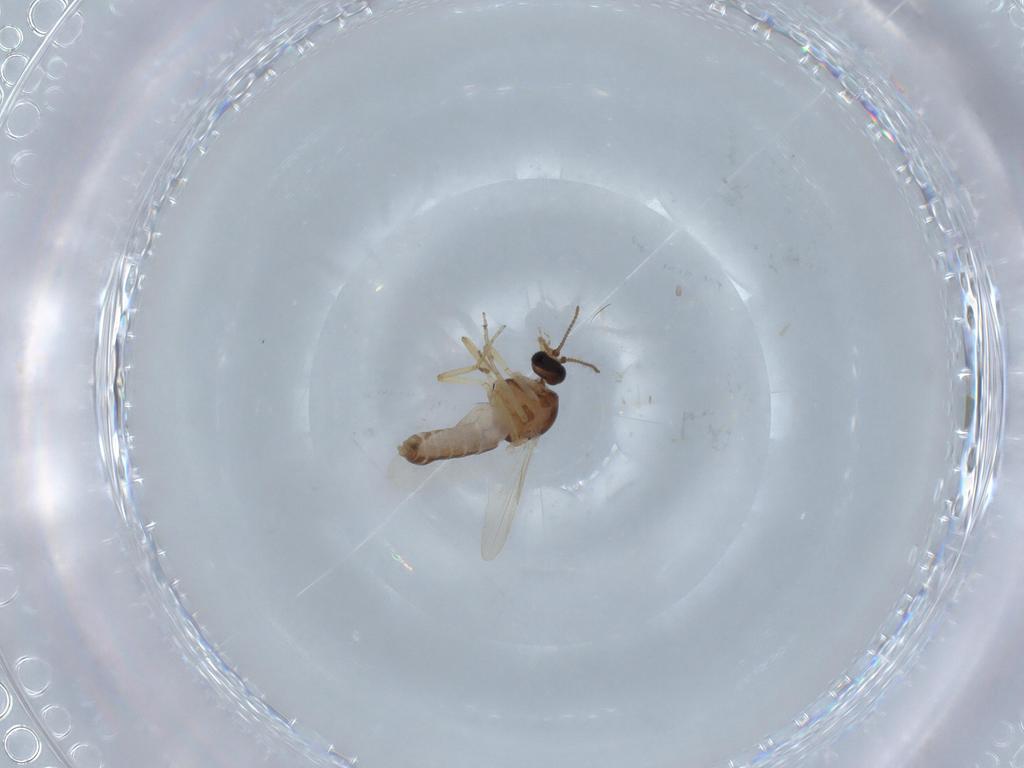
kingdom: Animalia
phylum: Arthropoda
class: Insecta
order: Diptera
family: Ceratopogonidae
